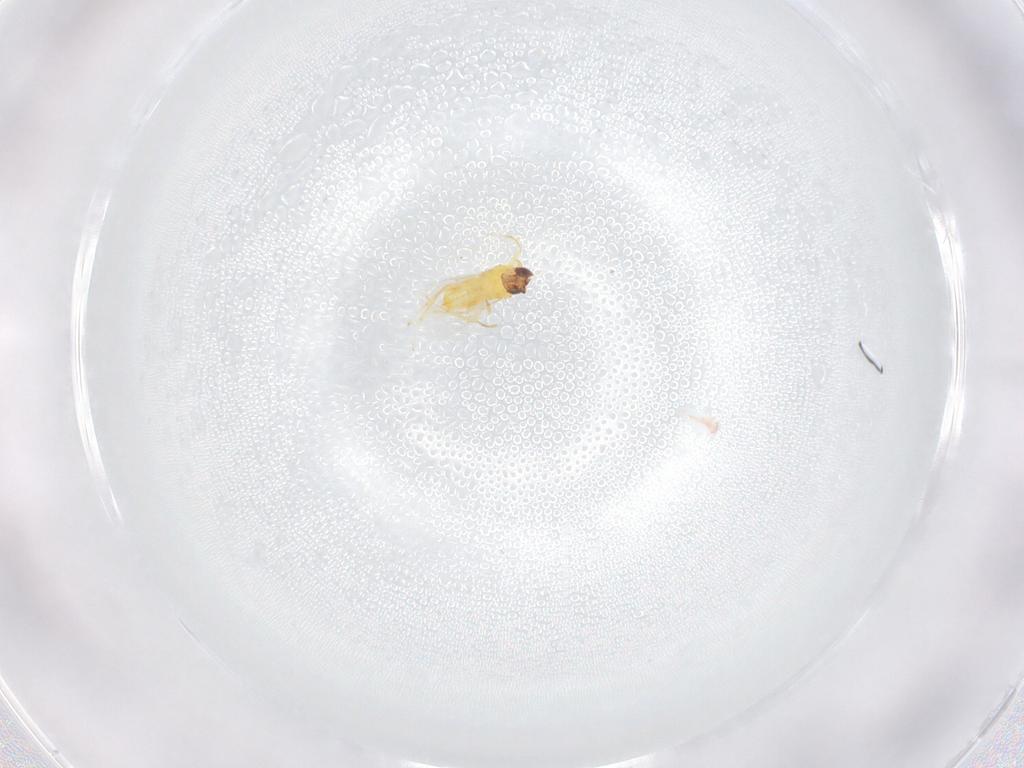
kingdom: Animalia
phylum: Arthropoda
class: Insecta
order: Hymenoptera
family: Aphelinidae
